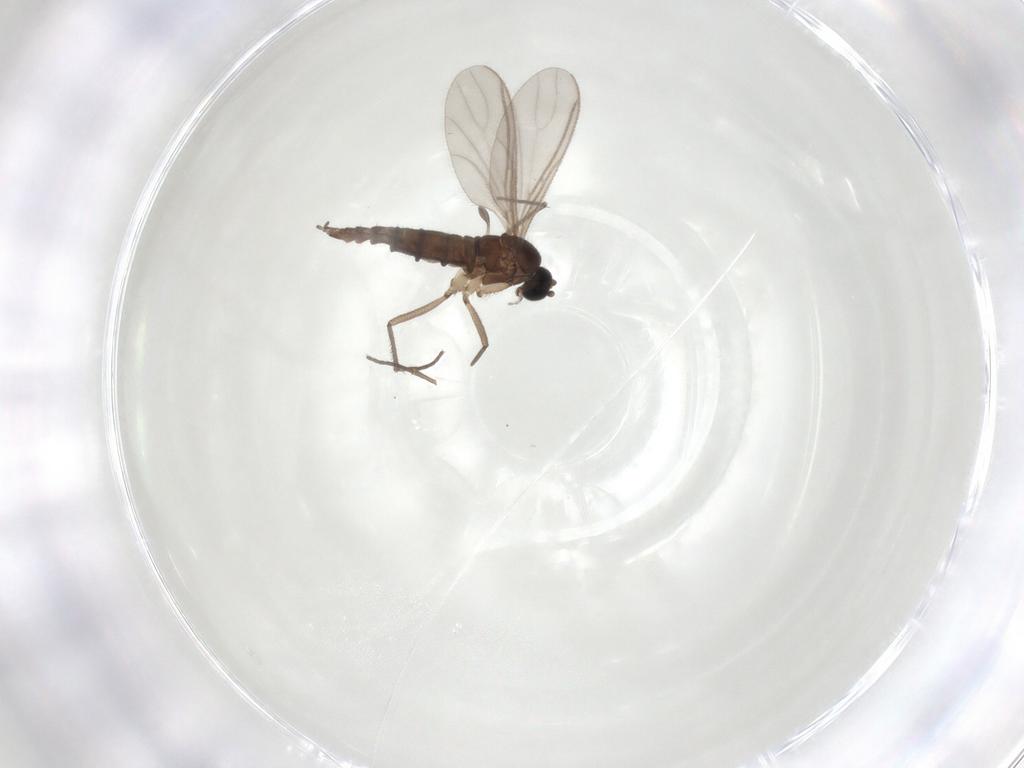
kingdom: Animalia
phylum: Arthropoda
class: Insecta
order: Diptera
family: Sciaridae
